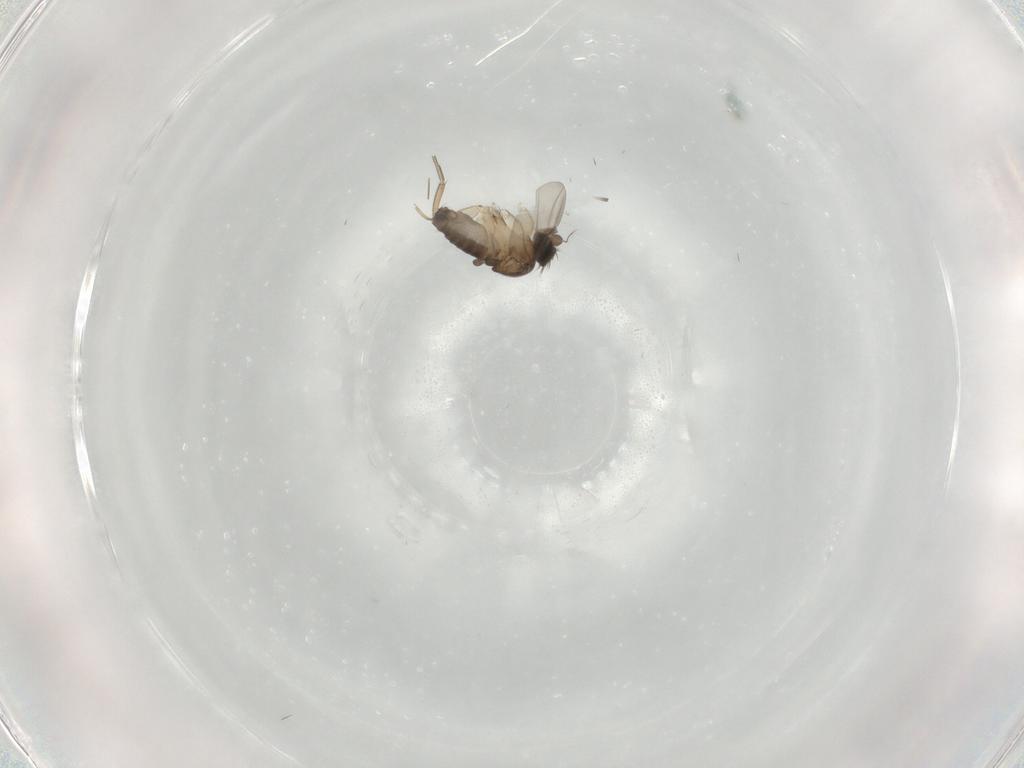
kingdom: Animalia
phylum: Arthropoda
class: Insecta
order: Diptera
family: Phoridae
